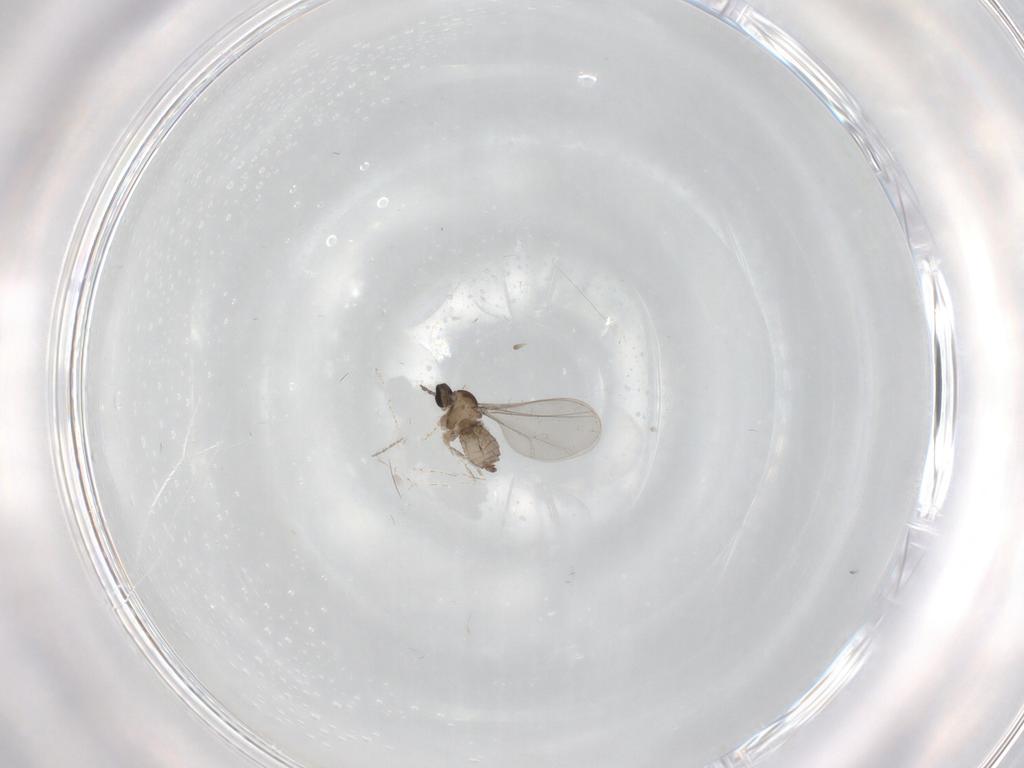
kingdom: Animalia
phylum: Arthropoda
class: Insecta
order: Diptera
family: Cecidomyiidae
